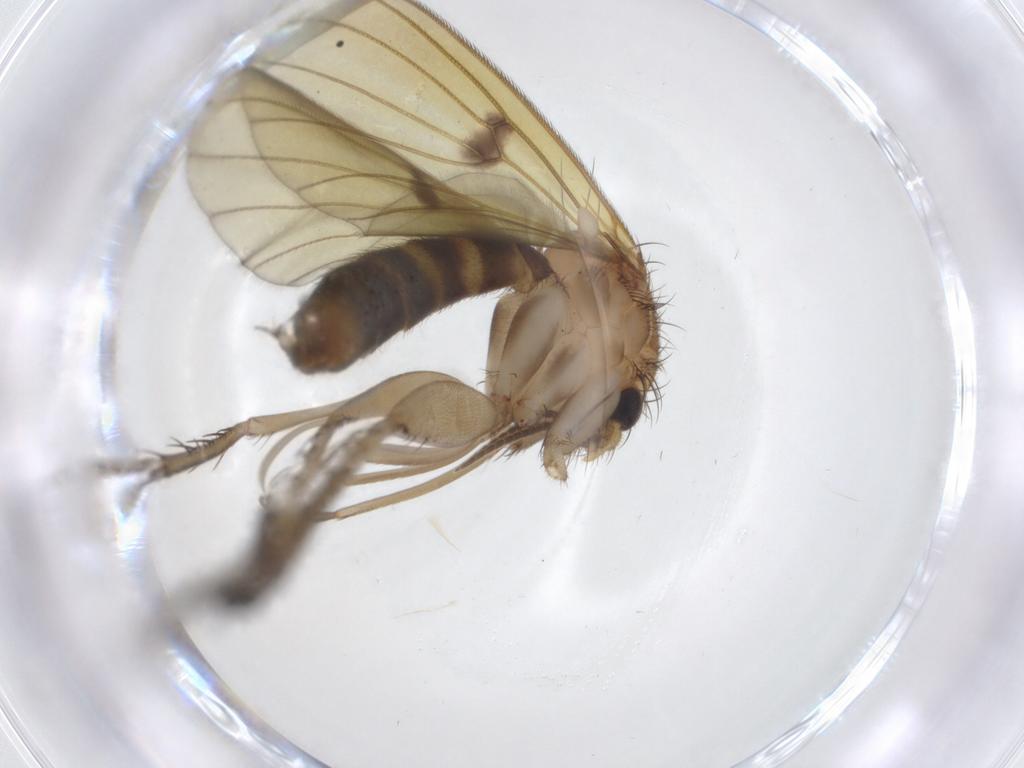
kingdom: Animalia
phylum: Arthropoda
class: Insecta
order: Diptera
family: Mycetophilidae
